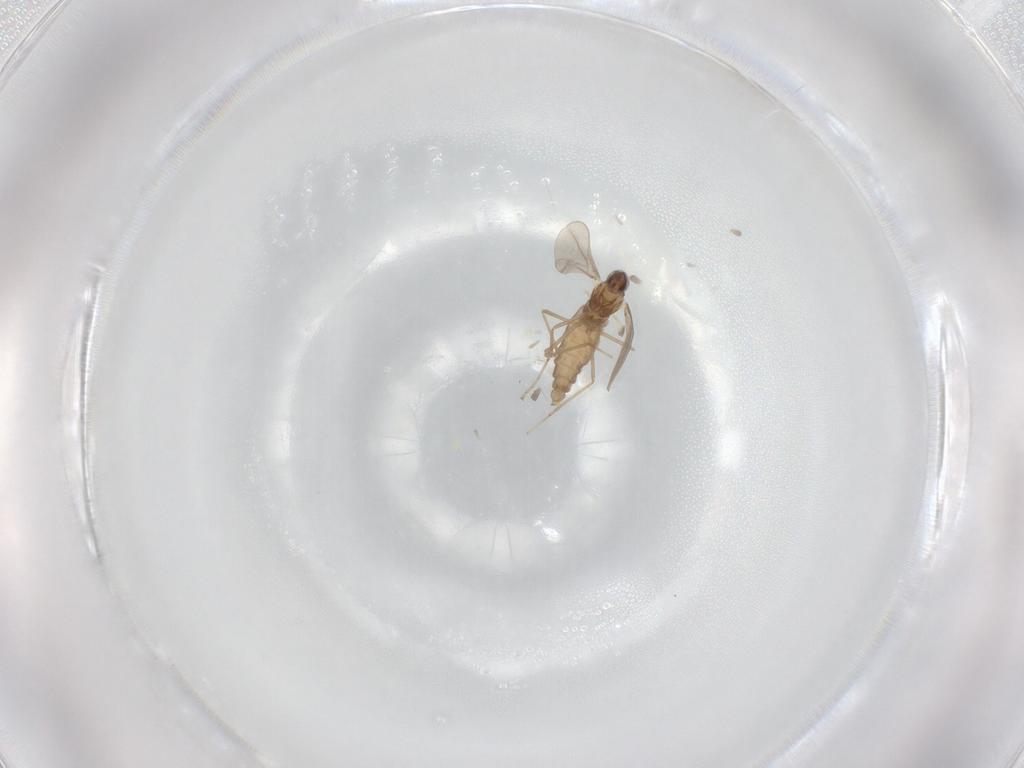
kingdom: Animalia
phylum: Arthropoda
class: Insecta
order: Diptera
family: Cecidomyiidae
